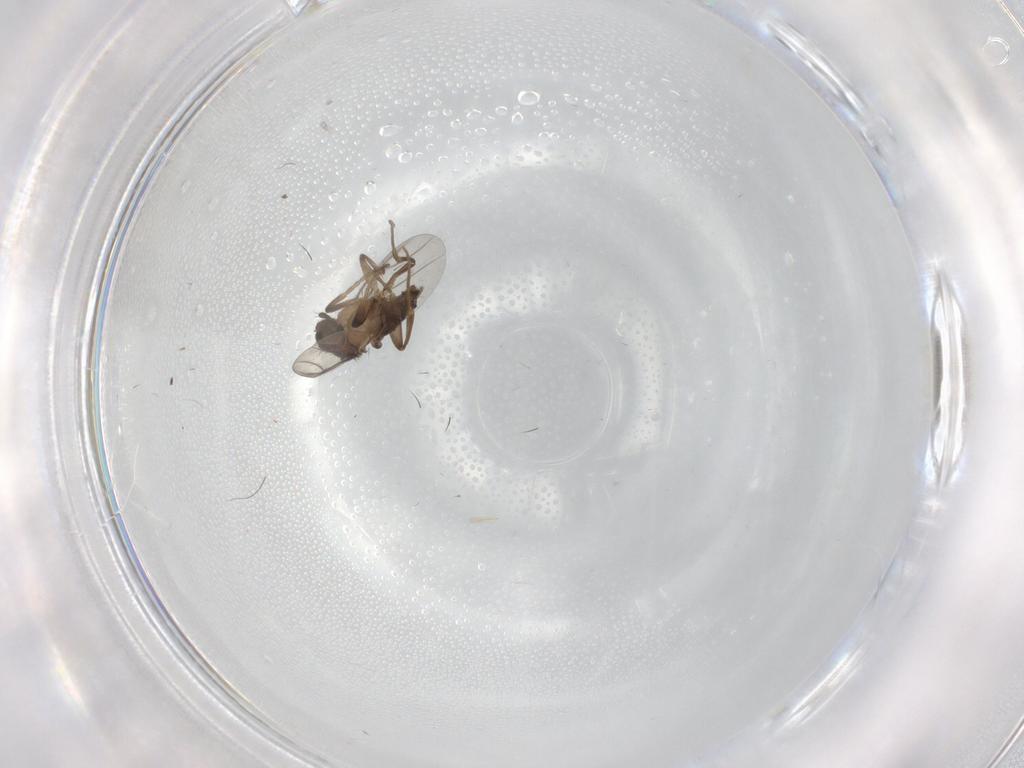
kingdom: Animalia
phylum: Arthropoda
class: Insecta
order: Diptera
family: Phoridae
